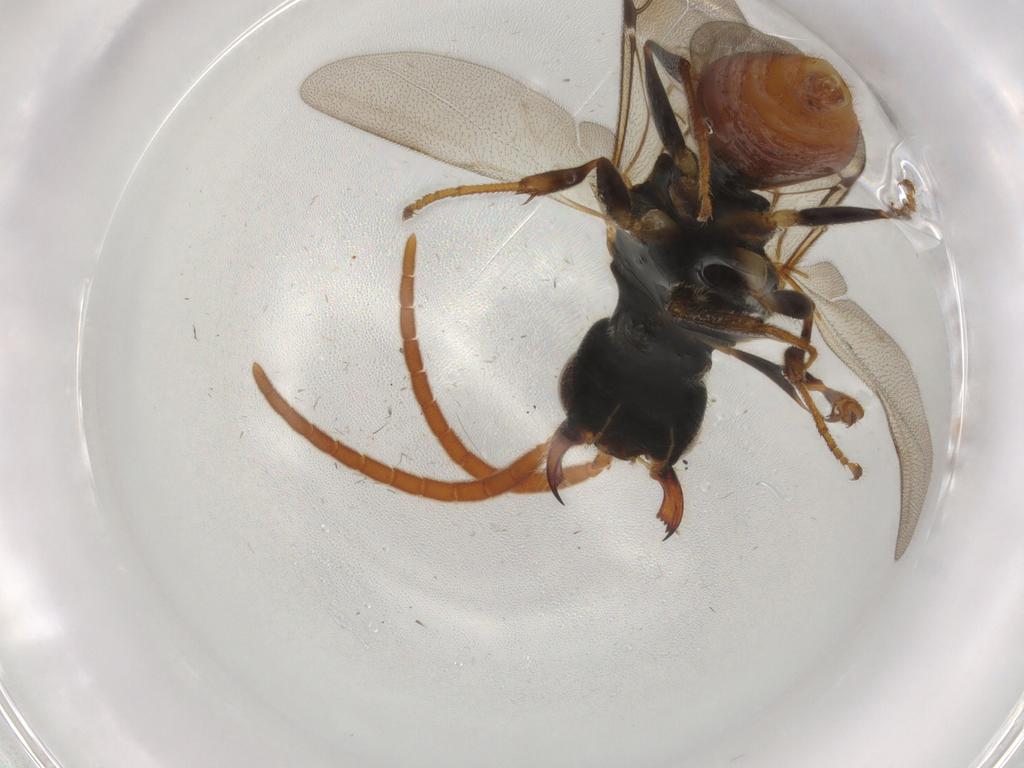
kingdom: Animalia
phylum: Arthropoda
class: Insecta
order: Hymenoptera
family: Bethylidae
